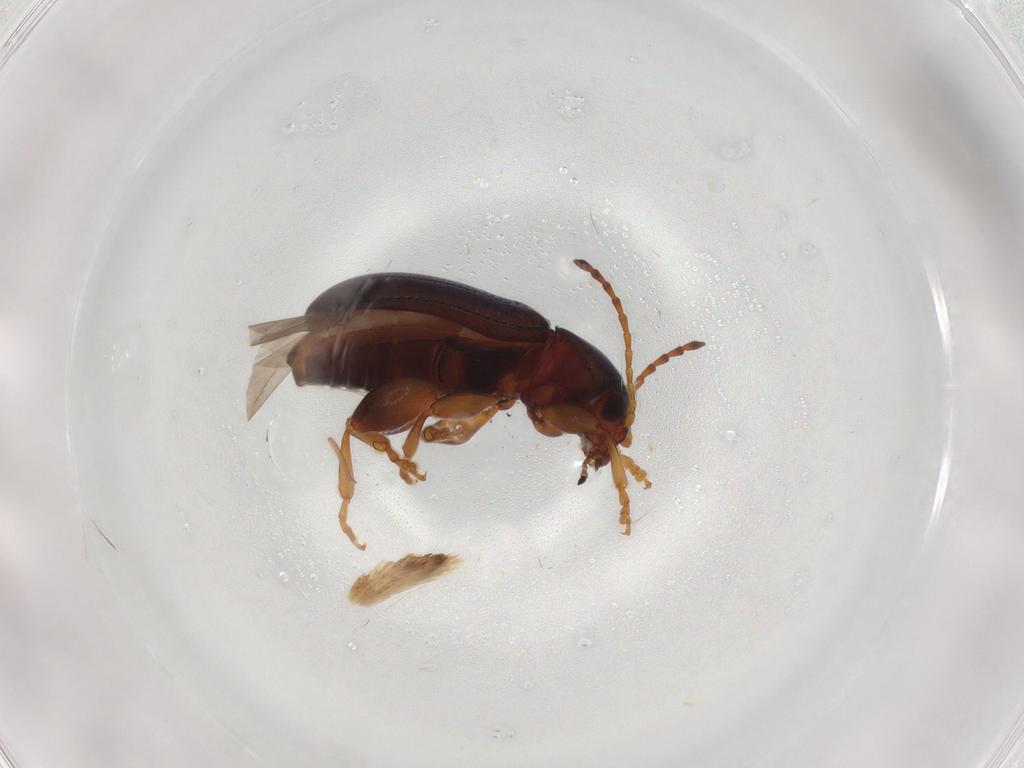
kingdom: Animalia
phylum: Arthropoda
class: Insecta
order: Coleoptera
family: Chrysomelidae
